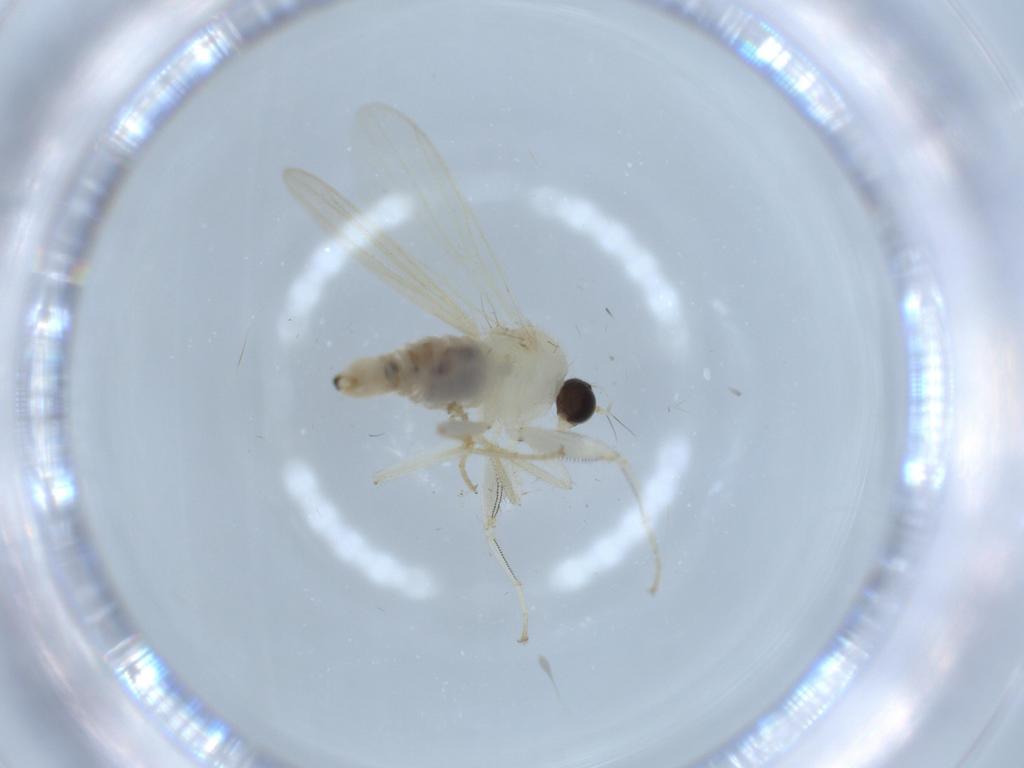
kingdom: Animalia
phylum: Arthropoda
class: Insecta
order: Diptera
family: Hybotidae
